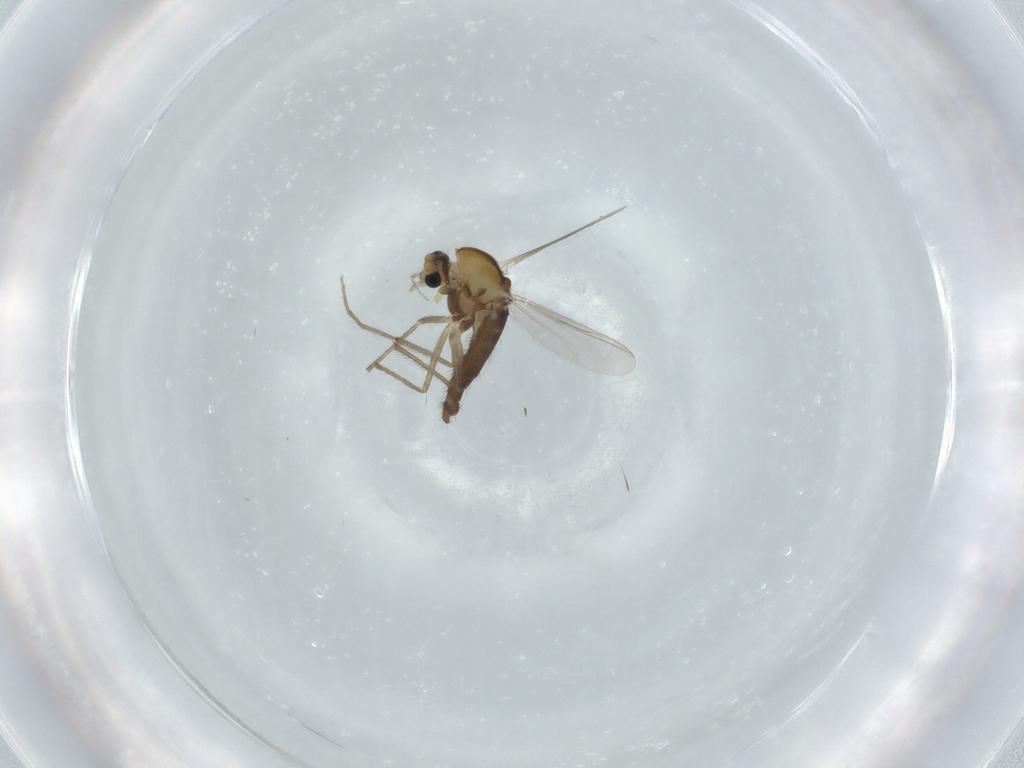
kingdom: Animalia
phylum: Arthropoda
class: Insecta
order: Diptera
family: Chironomidae
